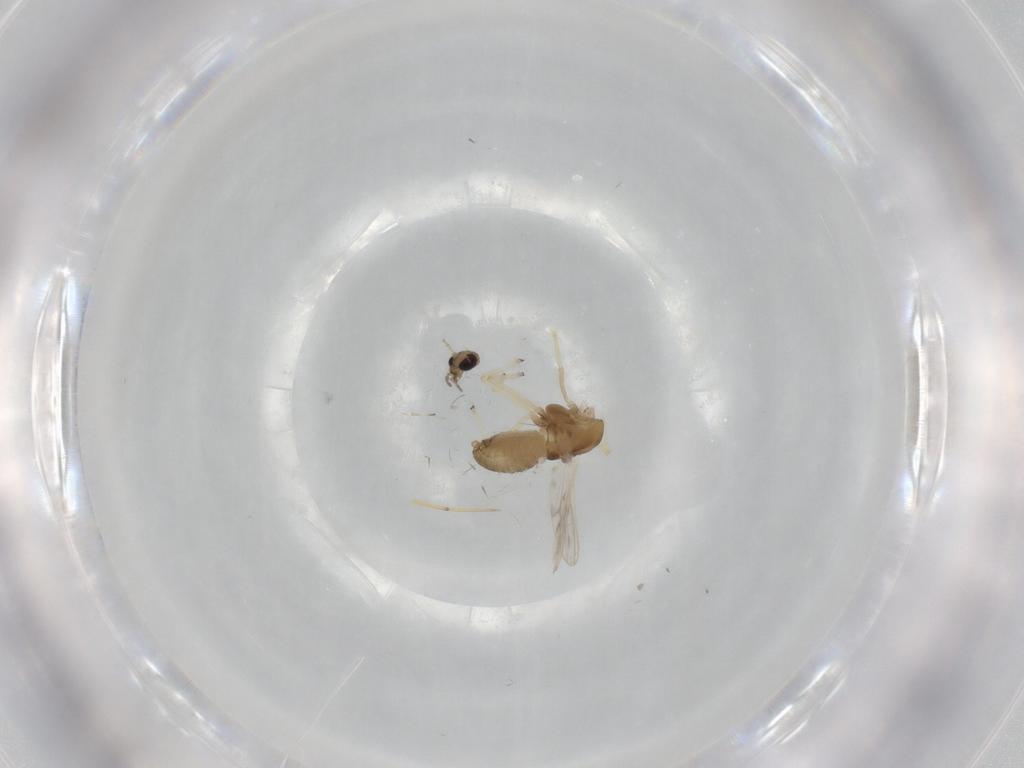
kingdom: Animalia
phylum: Arthropoda
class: Insecta
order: Diptera
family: Chironomidae
